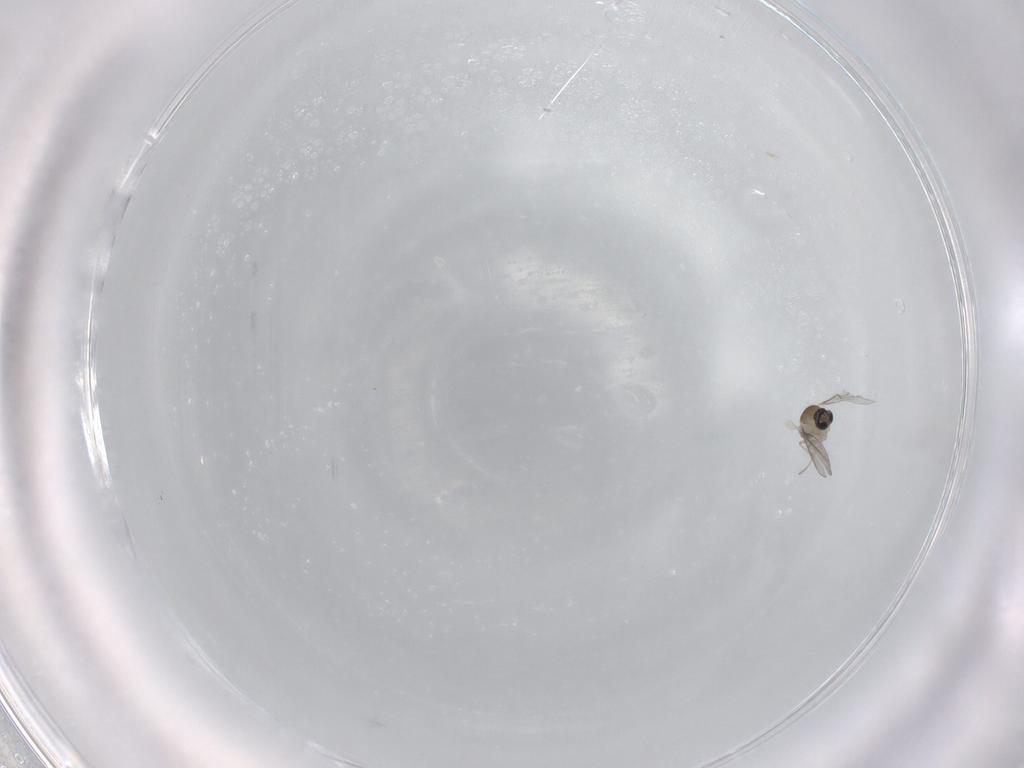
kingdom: Animalia
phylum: Arthropoda
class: Insecta
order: Diptera
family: Cecidomyiidae
